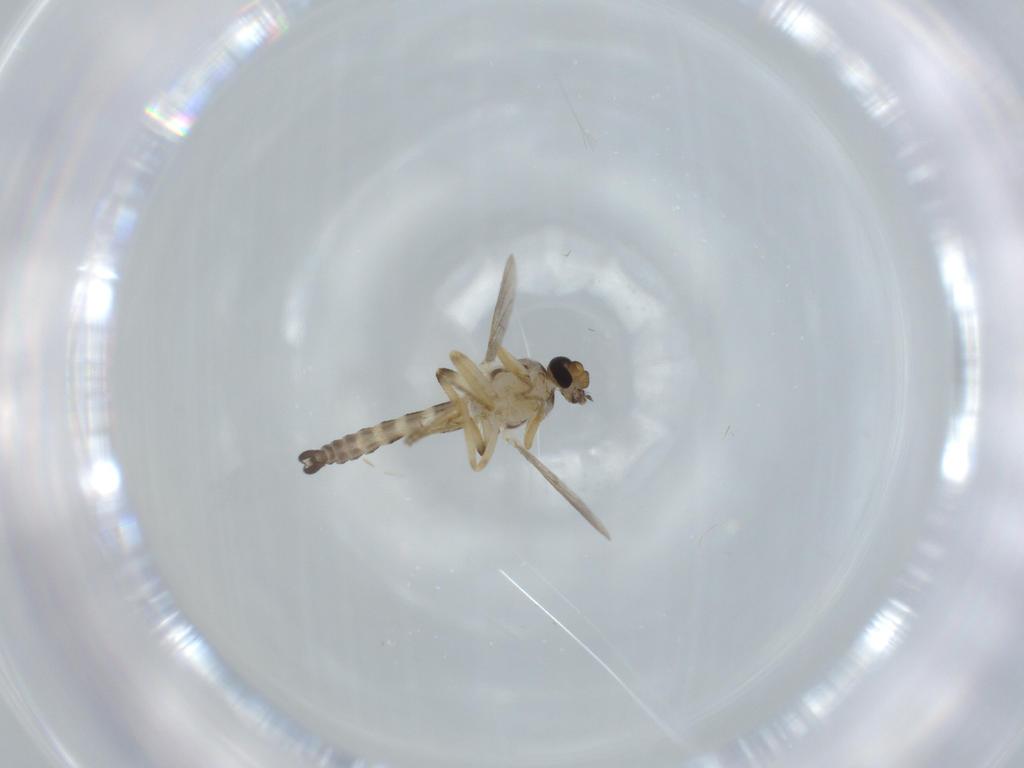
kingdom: Animalia
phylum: Arthropoda
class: Insecta
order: Diptera
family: Ceratopogonidae
